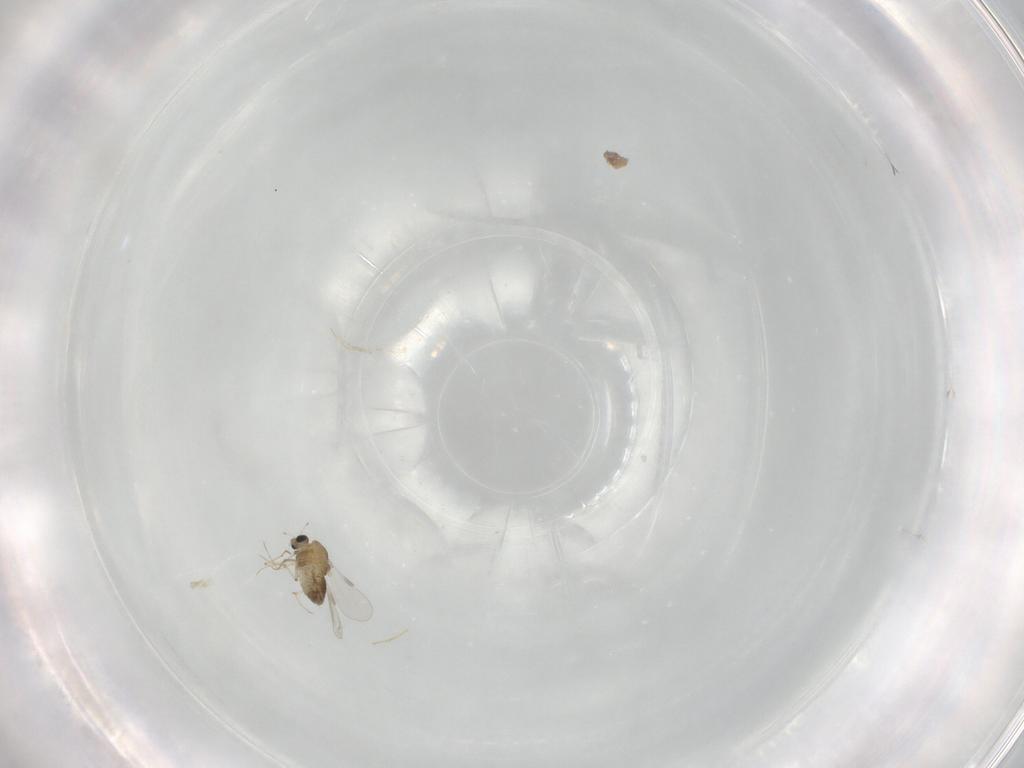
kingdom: Animalia
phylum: Arthropoda
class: Insecta
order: Diptera
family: Chironomidae
